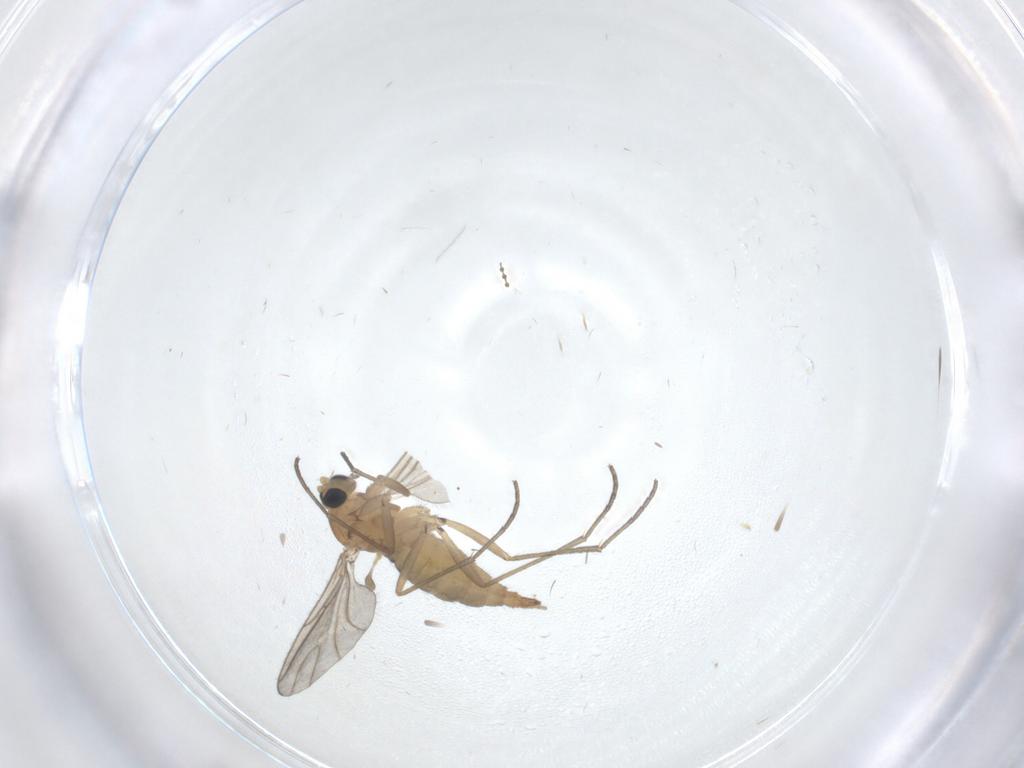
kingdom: Animalia
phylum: Arthropoda
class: Insecta
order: Diptera
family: Sciaridae
